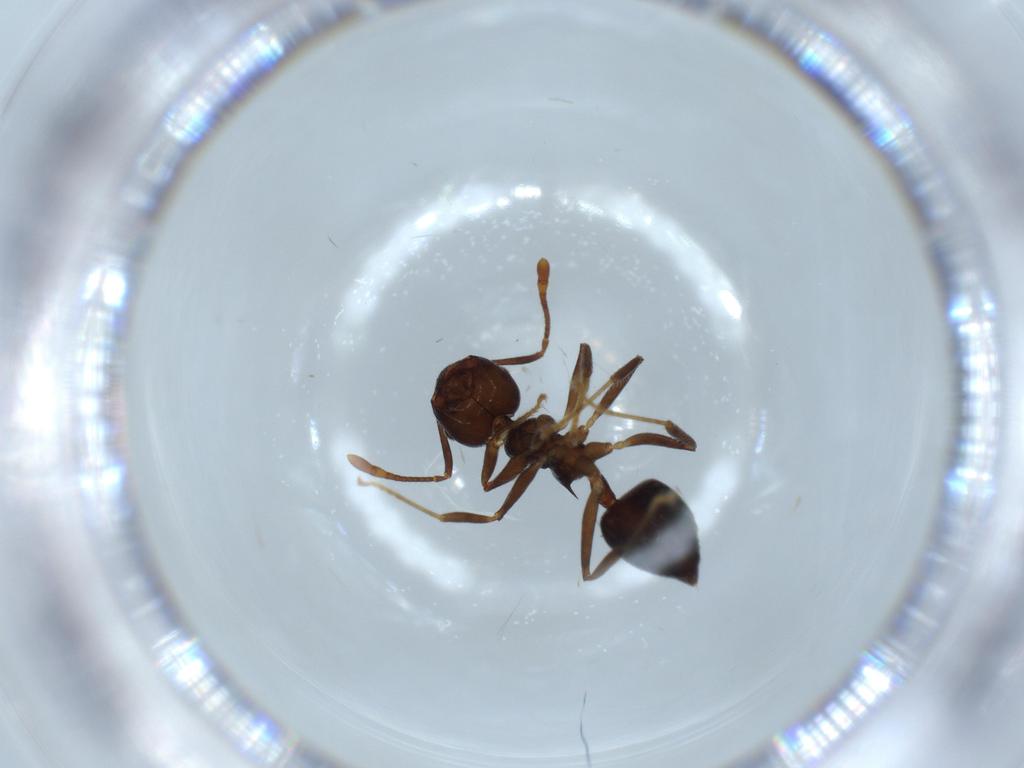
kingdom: Animalia
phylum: Arthropoda
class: Insecta
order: Hymenoptera
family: Formicidae
